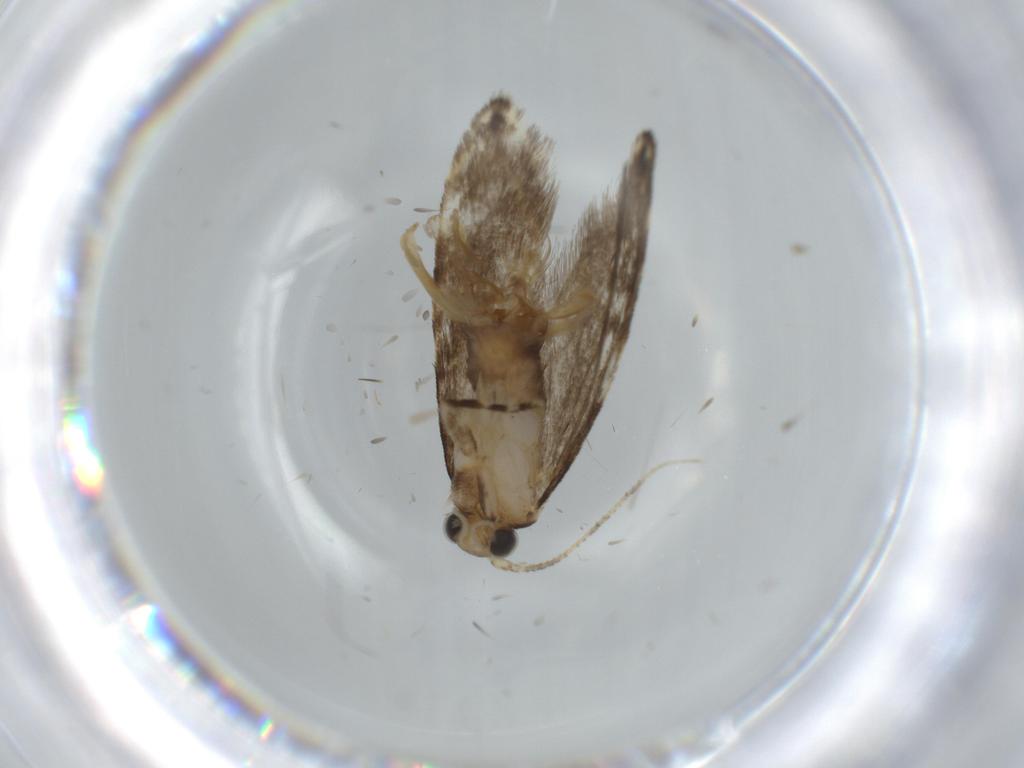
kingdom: Animalia
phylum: Arthropoda
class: Insecta
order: Lepidoptera
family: Tineidae
